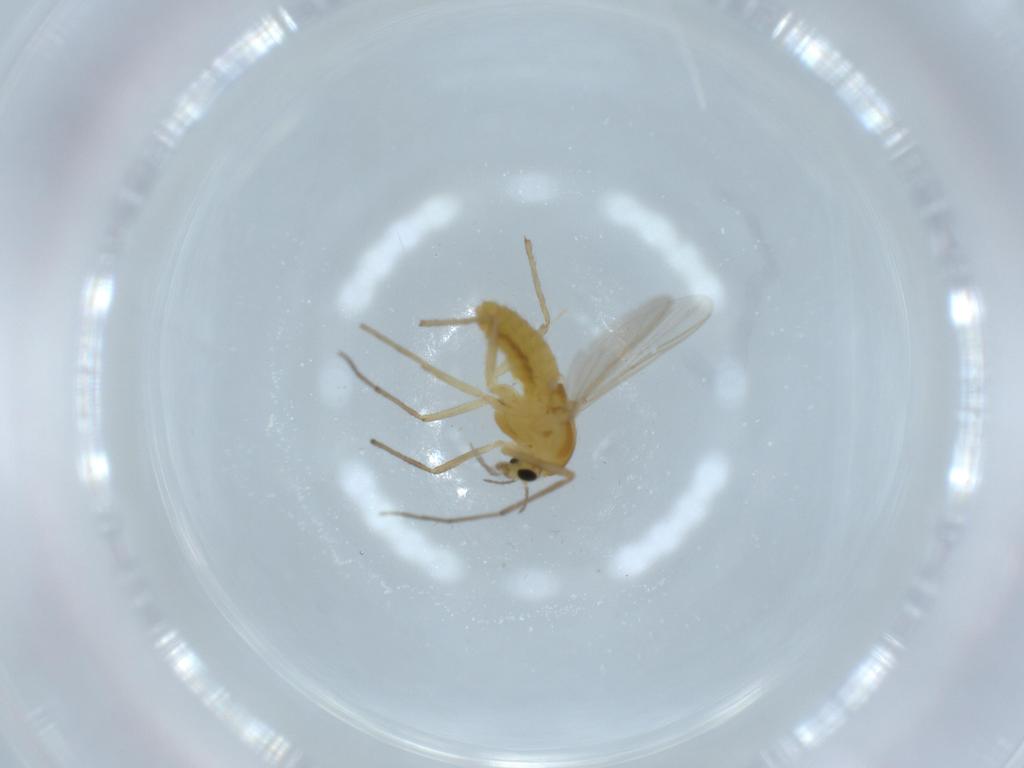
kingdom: Animalia
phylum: Arthropoda
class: Insecta
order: Diptera
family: Chironomidae
